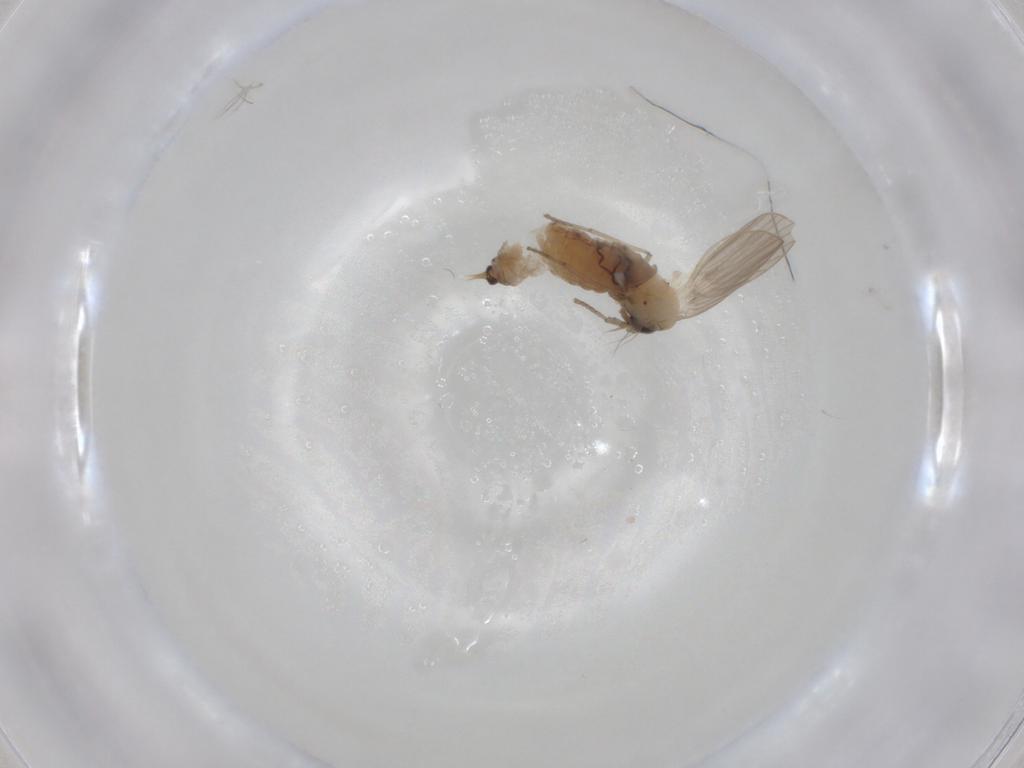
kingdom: Animalia
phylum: Arthropoda
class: Insecta
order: Diptera
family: Psychodidae
